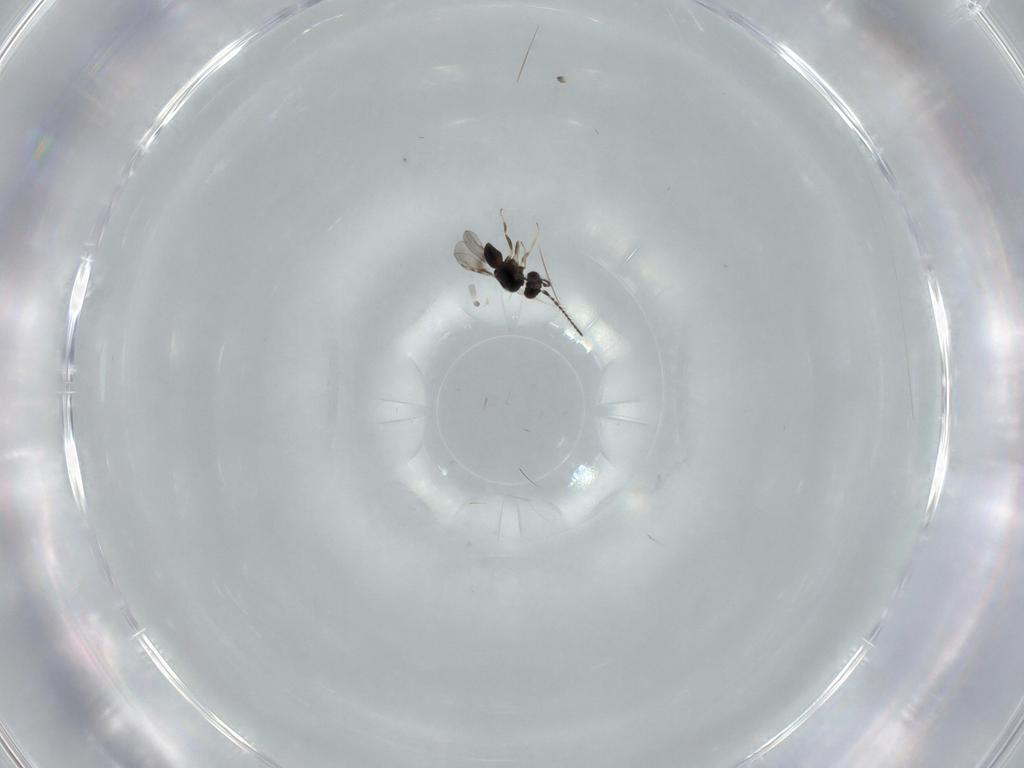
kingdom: Animalia
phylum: Arthropoda
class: Insecta
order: Hymenoptera
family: Ceraphronidae
